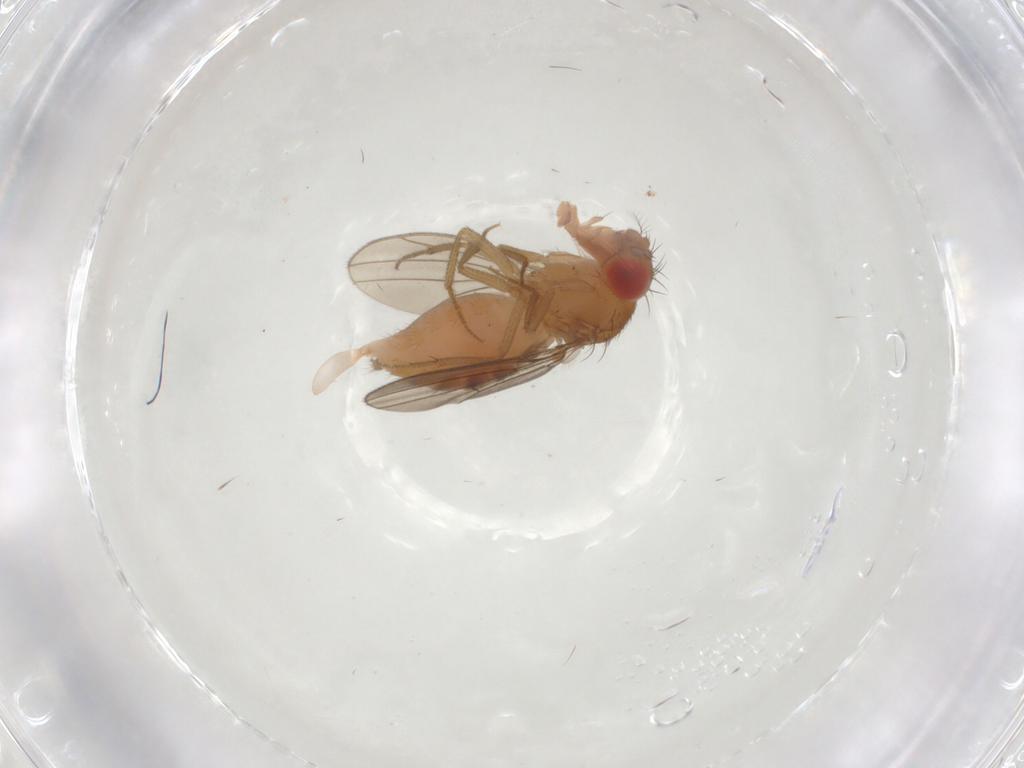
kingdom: Animalia
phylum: Arthropoda
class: Insecta
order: Diptera
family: Drosophilidae
